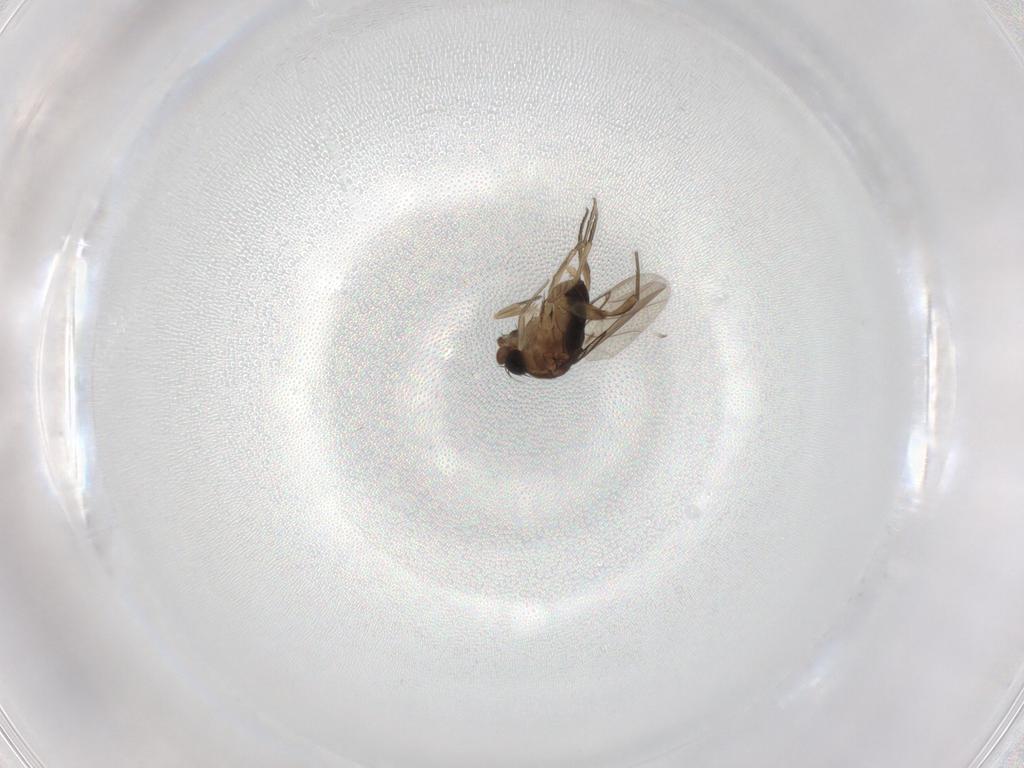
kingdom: Animalia
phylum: Arthropoda
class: Insecta
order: Diptera
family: Phoridae
